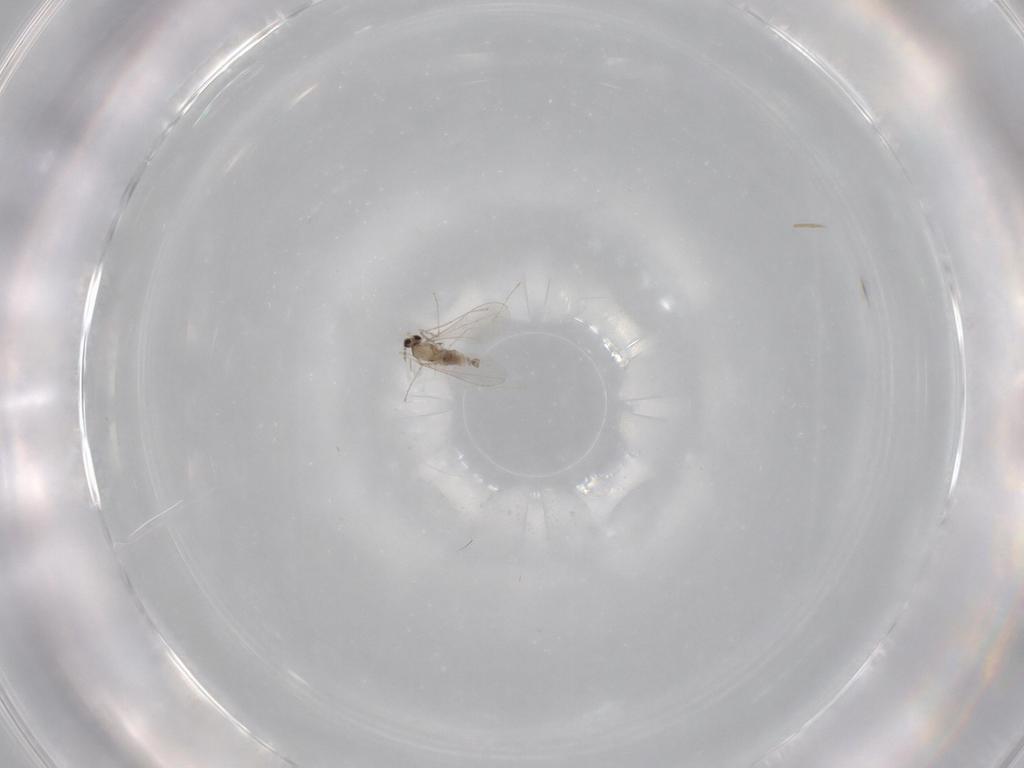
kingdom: Animalia
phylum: Arthropoda
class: Insecta
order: Diptera
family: Cecidomyiidae
